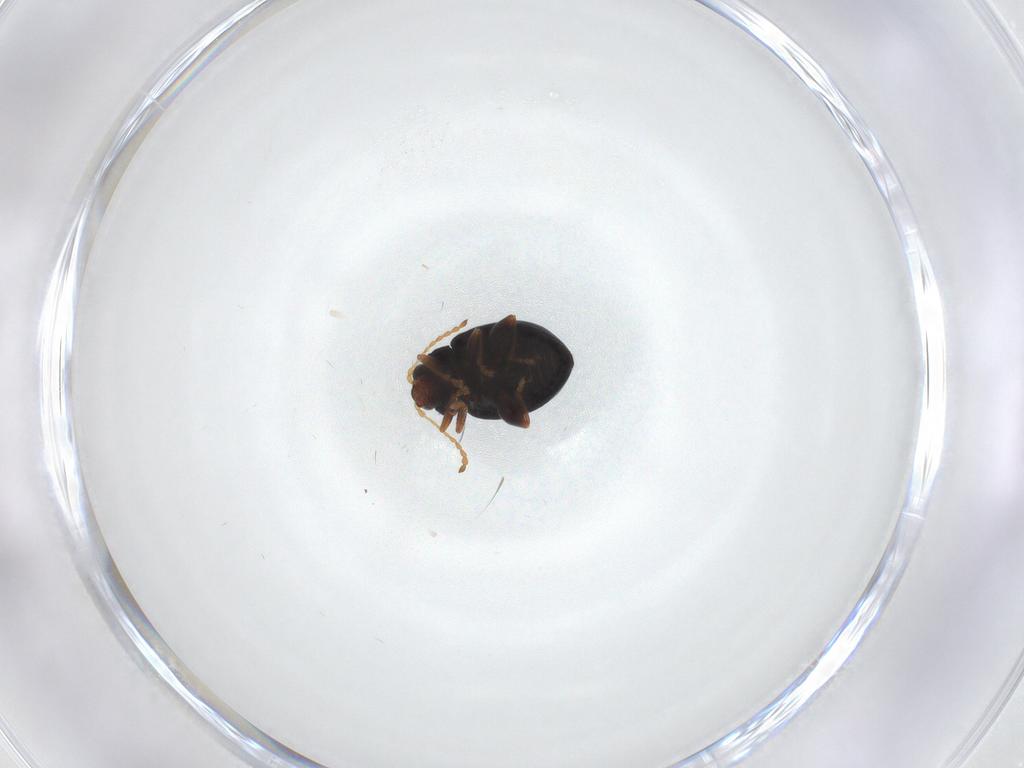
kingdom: Animalia
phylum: Arthropoda
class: Insecta
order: Coleoptera
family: Chrysomelidae
